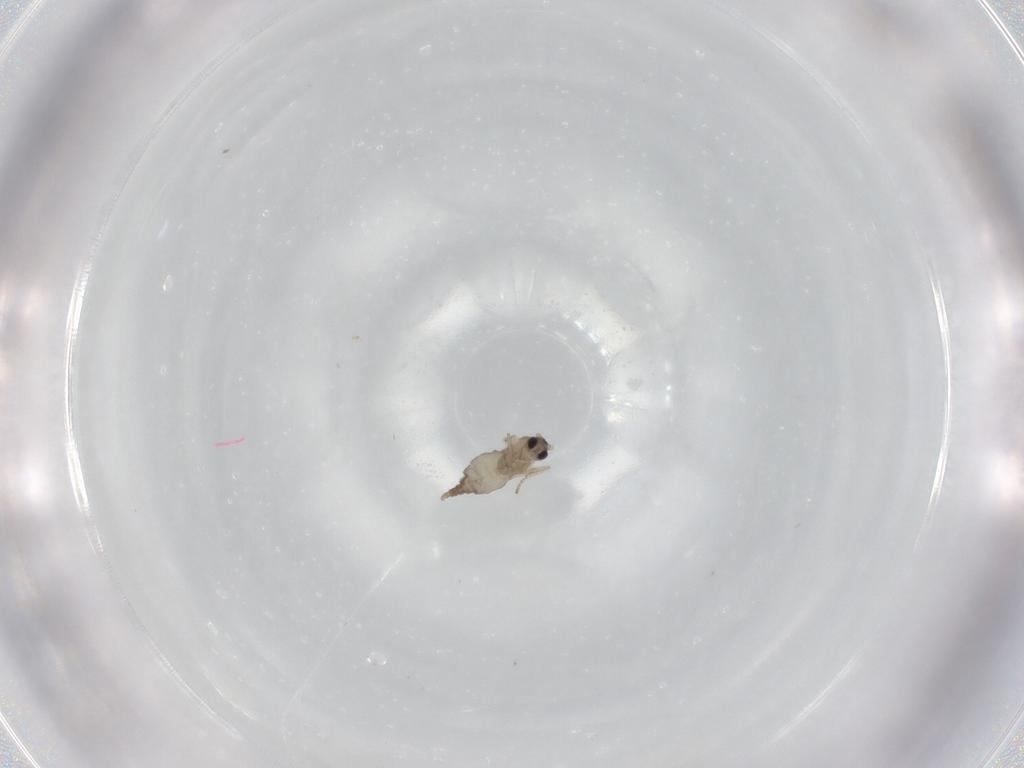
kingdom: Animalia
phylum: Arthropoda
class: Insecta
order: Diptera
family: Cecidomyiidae
